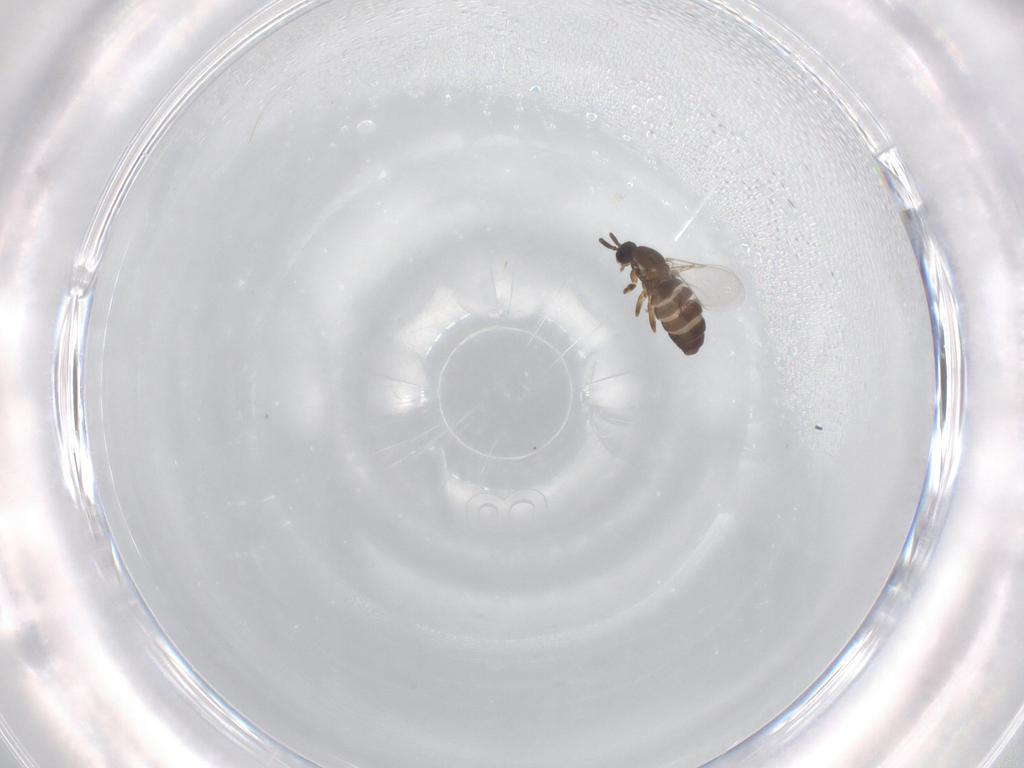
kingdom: Animalia
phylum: Arthropoda
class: Insecta
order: Diptera
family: Scatopsidae
